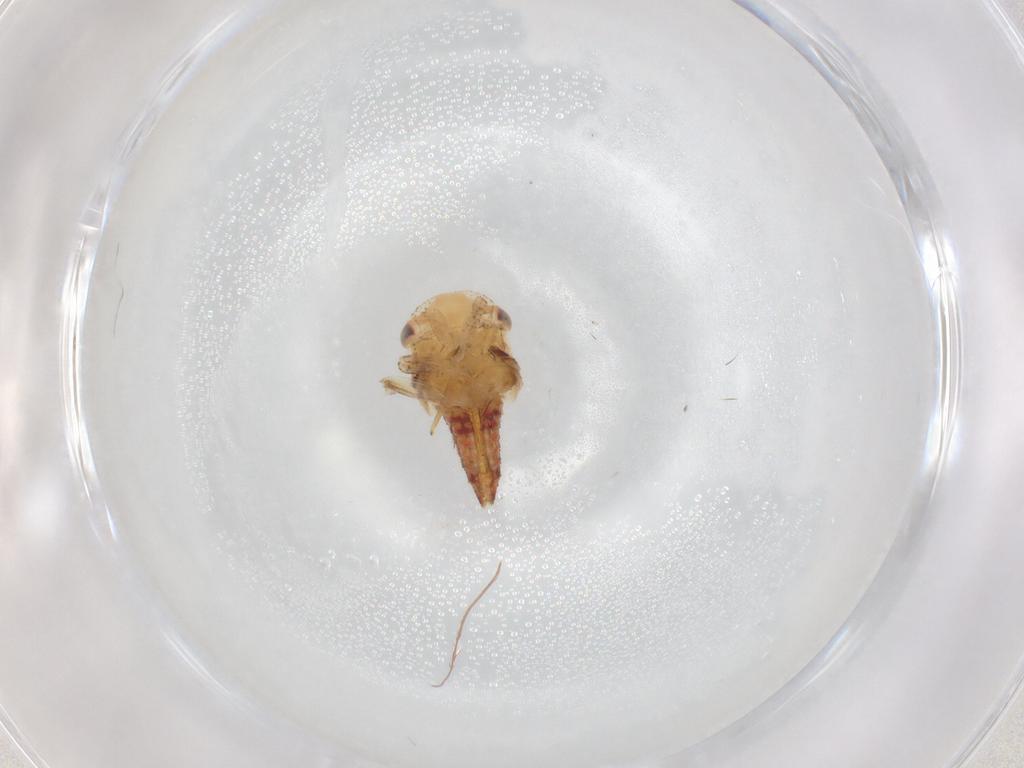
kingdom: Animalia
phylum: Arthropoda
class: Insecta
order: Hemiptera
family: Cicadellidae
